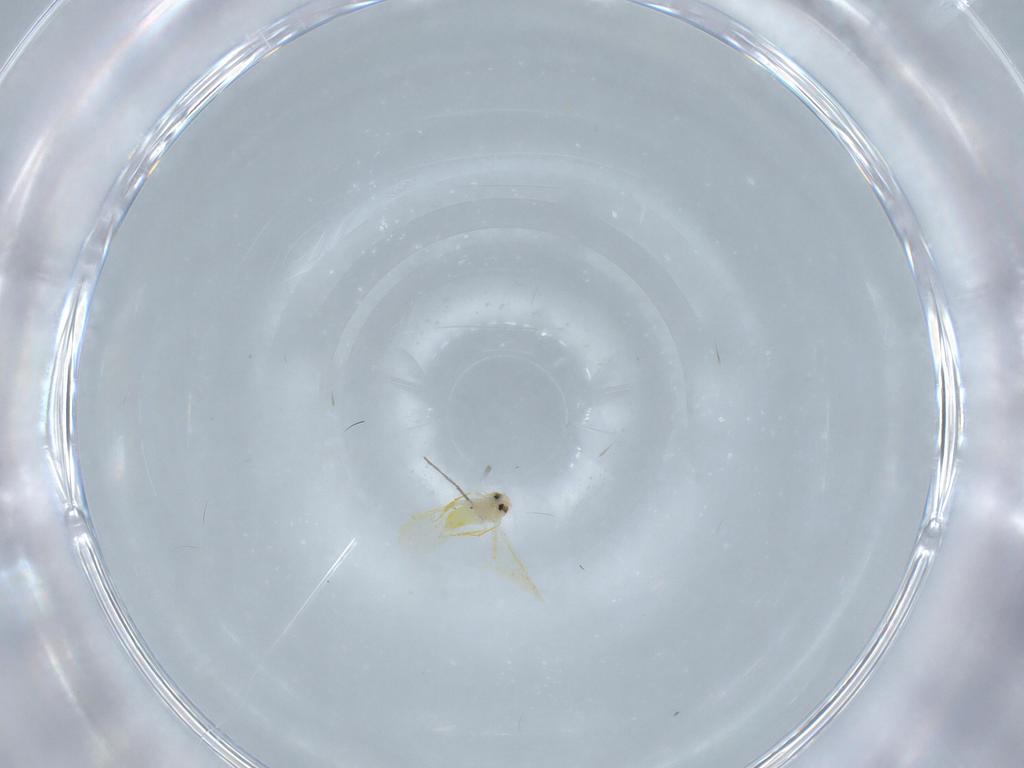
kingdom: Animalia
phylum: Arthropoda
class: Insecta
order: Hemiptera
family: Aleyrodidae
